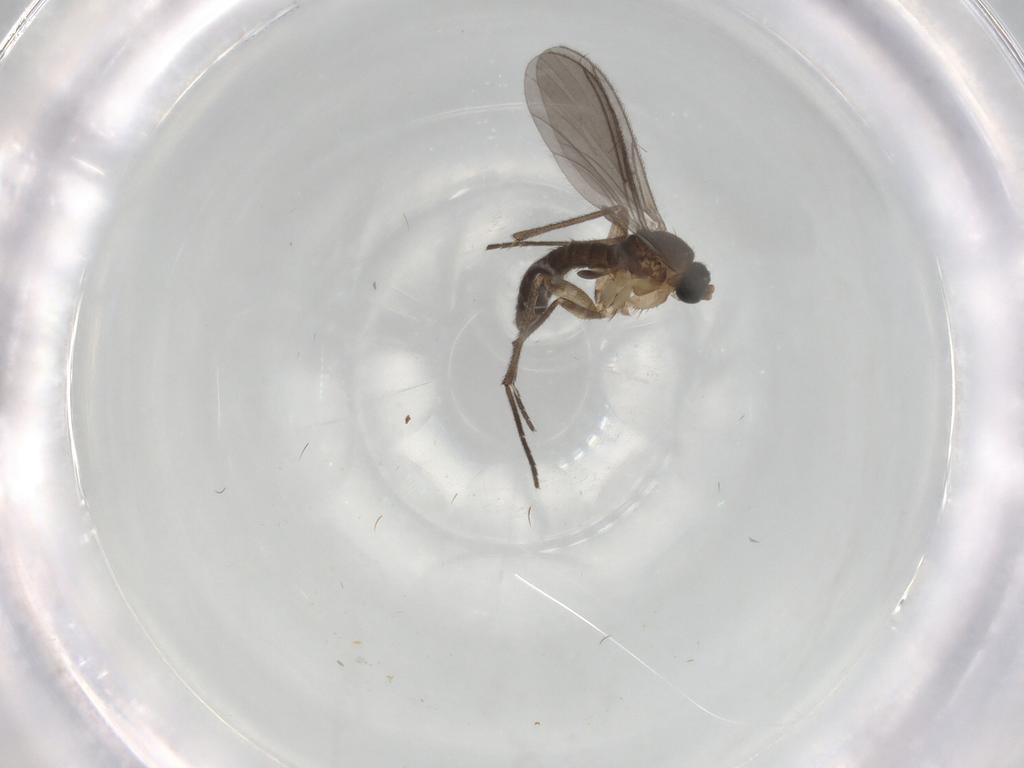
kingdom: Animalia
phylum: Arthropoda
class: Insecta
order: Diptera
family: Sciaridae
